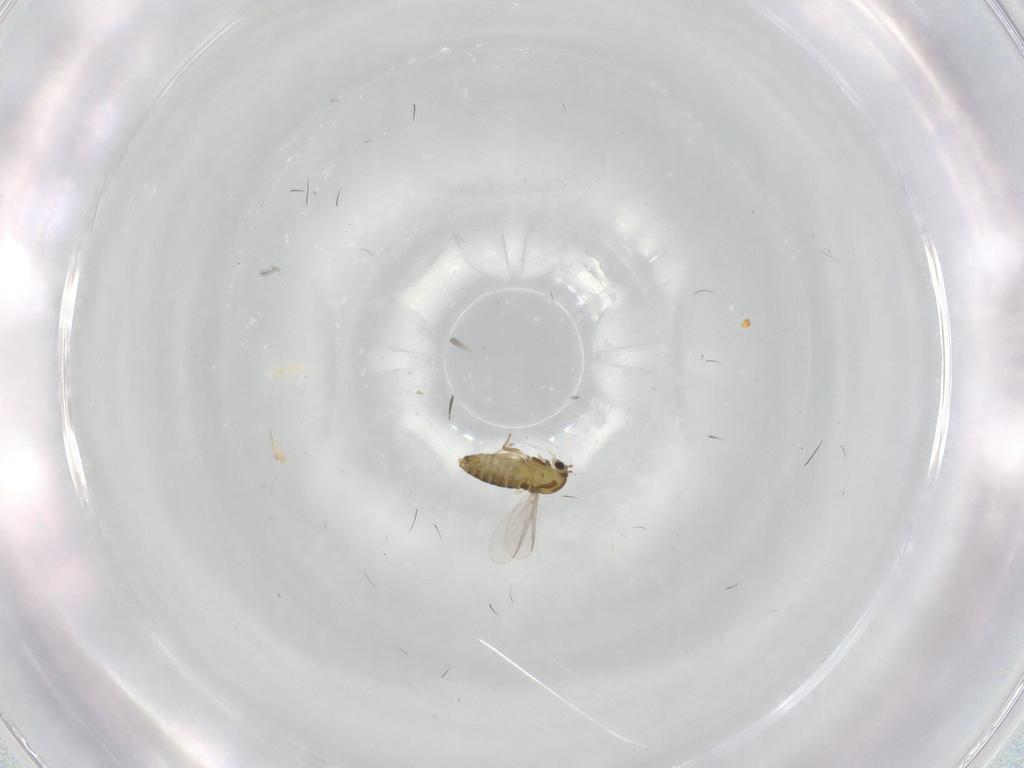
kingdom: Animalia
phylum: Arthropoda
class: Insecta
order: Diptera
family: Chironomidae
